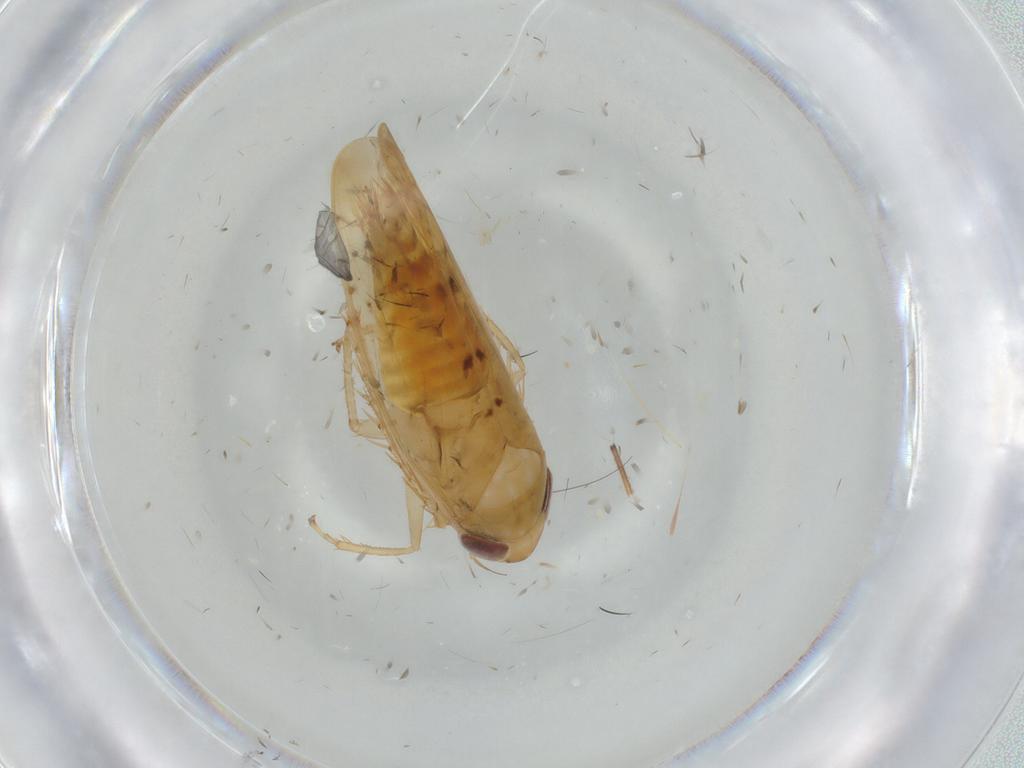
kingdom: Animalia
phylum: Arthropoda
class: Insecta
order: Hemiptera
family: Cicadellidae
